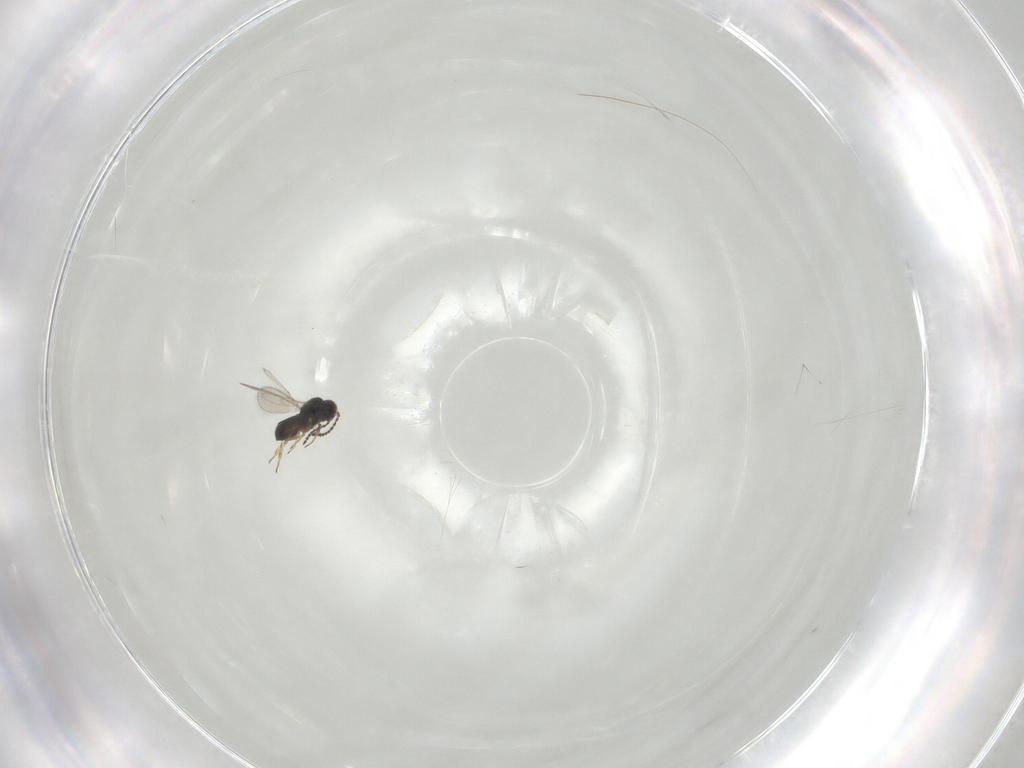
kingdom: Animalia
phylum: Arthropoda
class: Insecta
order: Hymenoptera
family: Scelionidae
